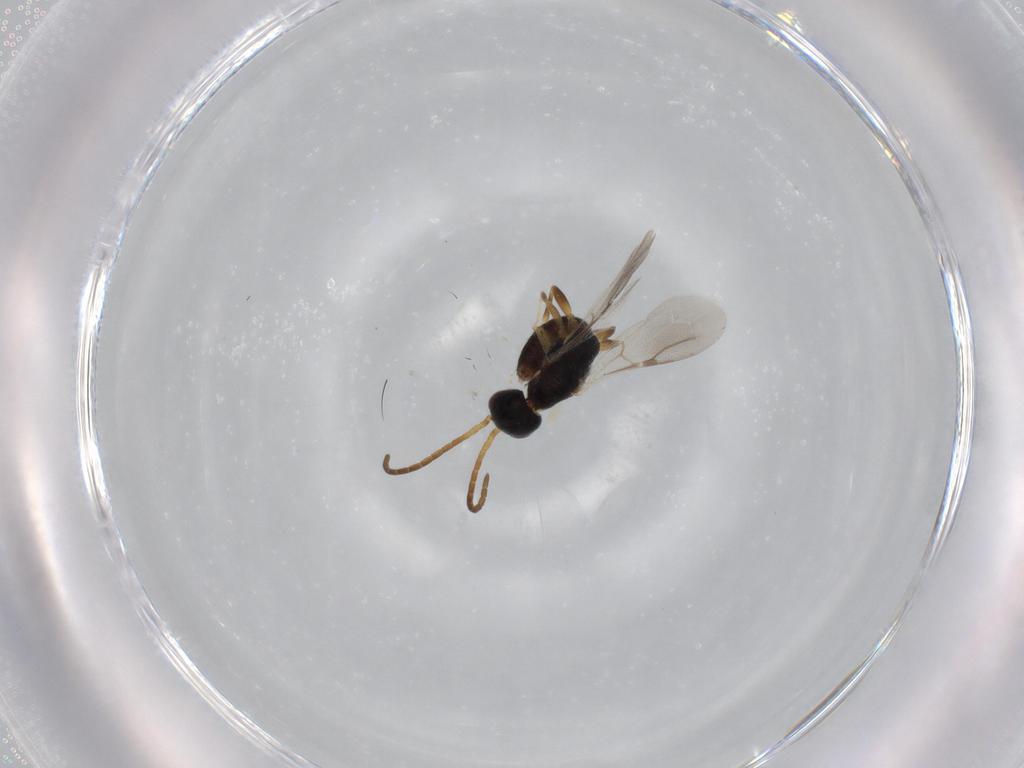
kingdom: Animalia
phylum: Arthropoda
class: Insecta
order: Hymenoptera
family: Bethylidae
